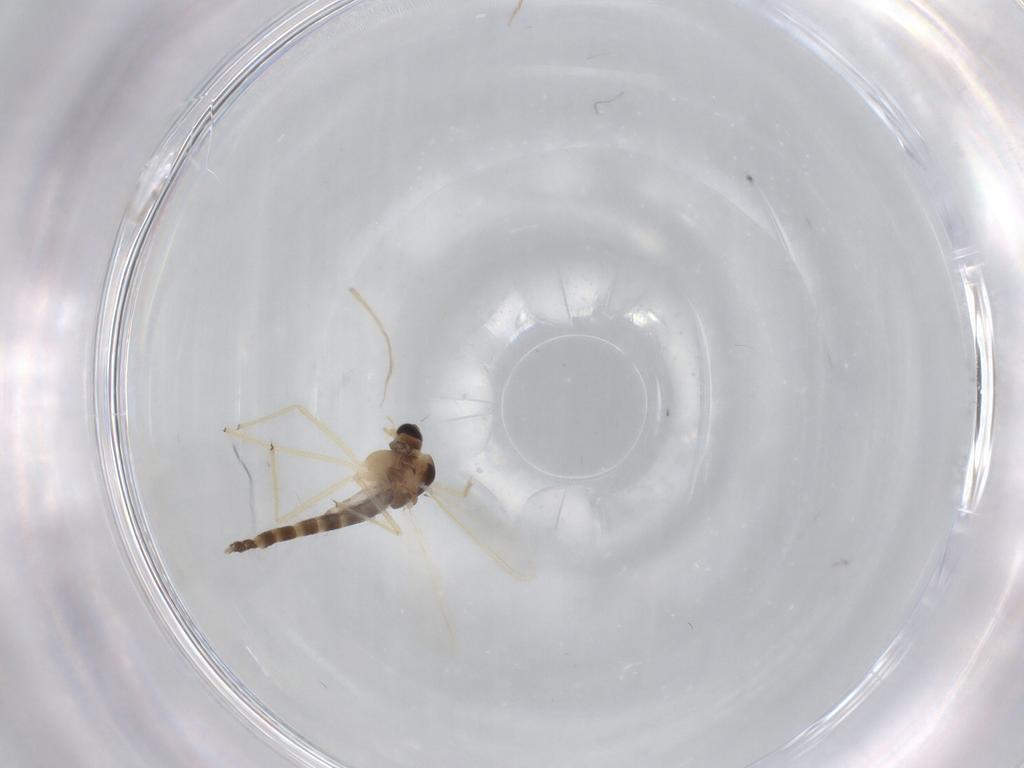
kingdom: Animalia
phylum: Arthropoda
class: Insecta
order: Diptera
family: Chironomidae
